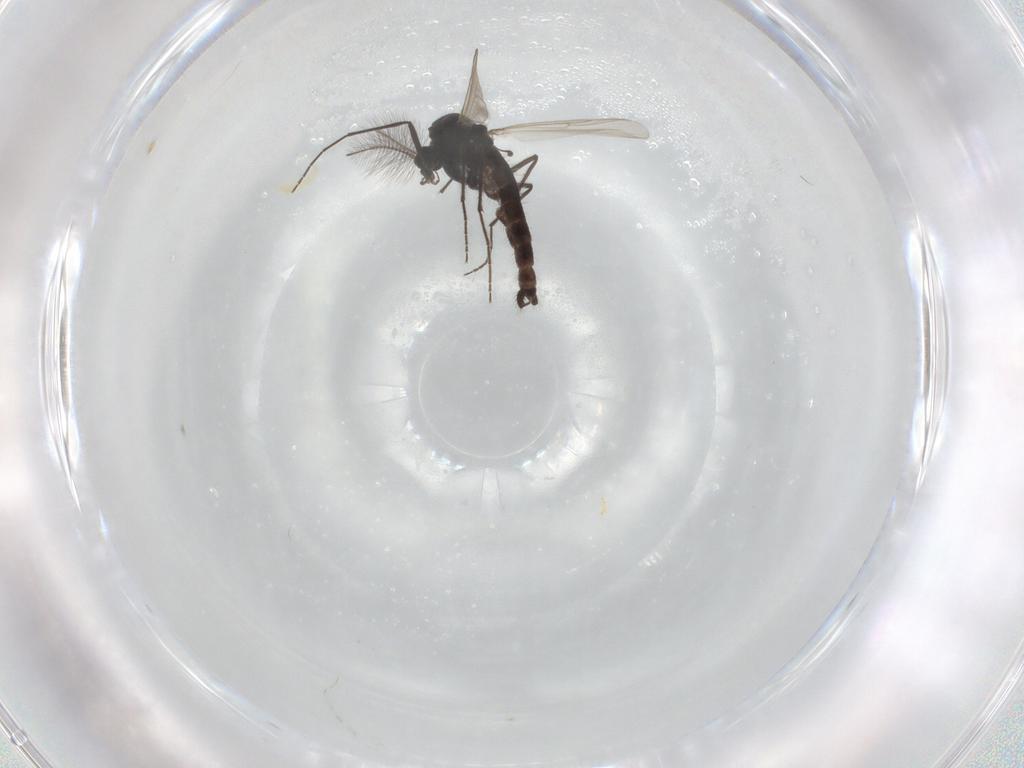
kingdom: Animalia
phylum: Arthropoda
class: Insecta
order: Diptera
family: Chironomidae
